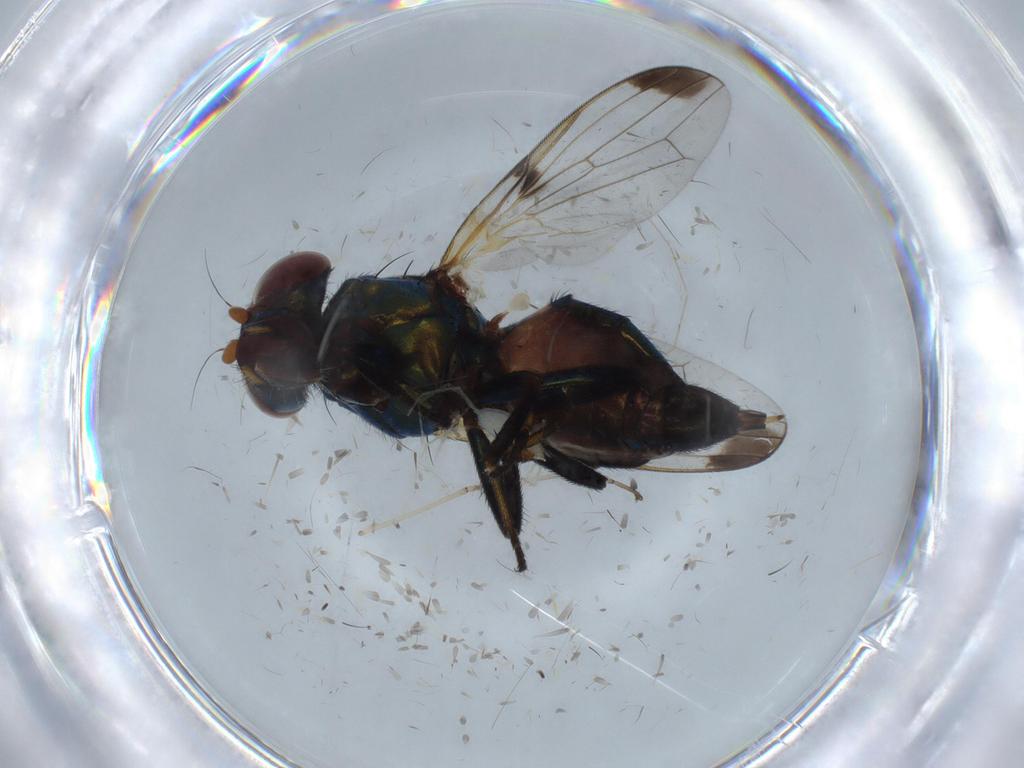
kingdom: Animalia
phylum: Arthropoda
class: Insecta
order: Diptera
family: Ulidiidae
